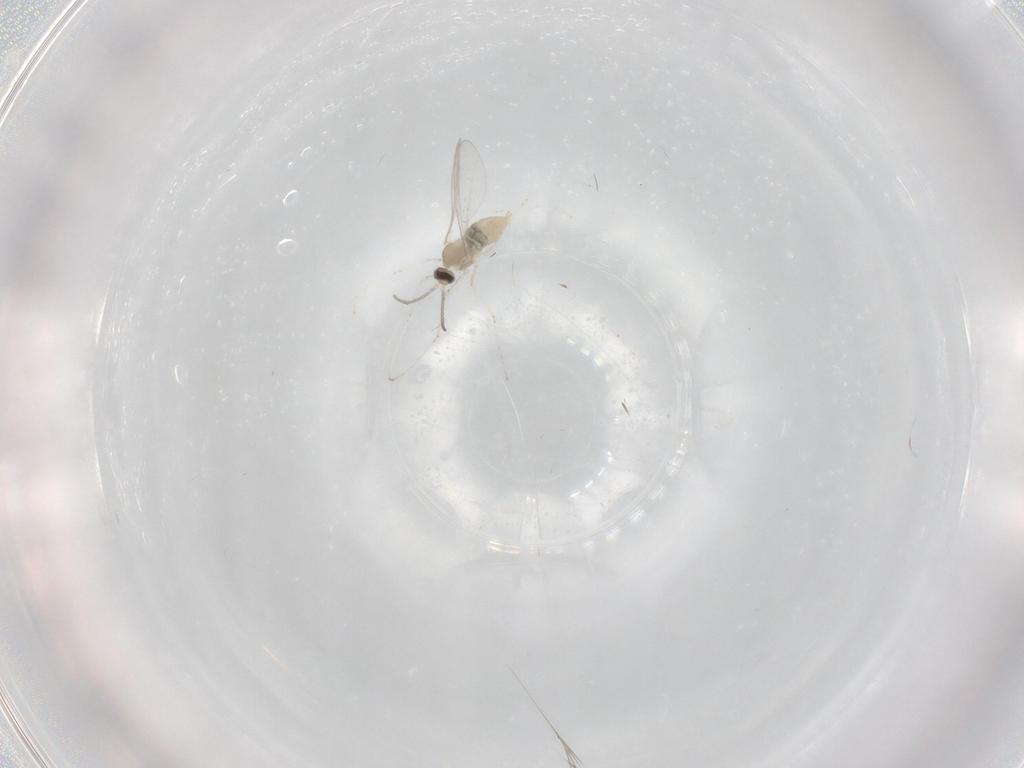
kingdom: Animalia
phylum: Arthropoda
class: Insecta
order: Diptera
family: Cecidomyiidae
